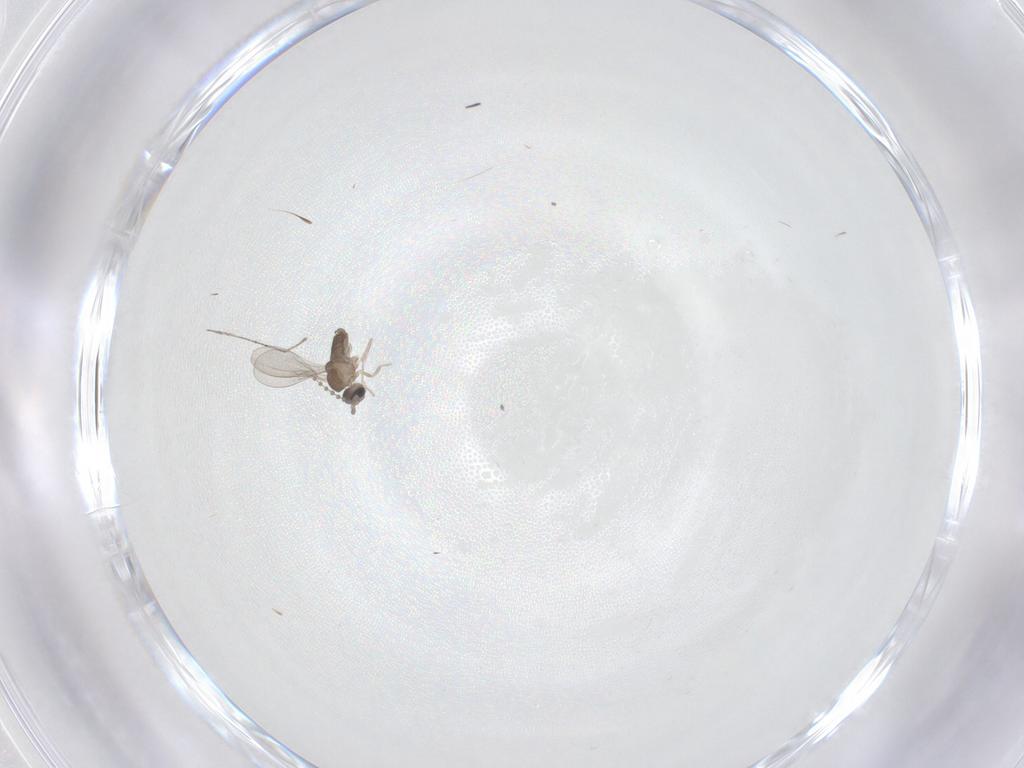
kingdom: Animalia
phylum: Arthropoda
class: Insecta
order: Diptera
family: Cecidomyiidae
